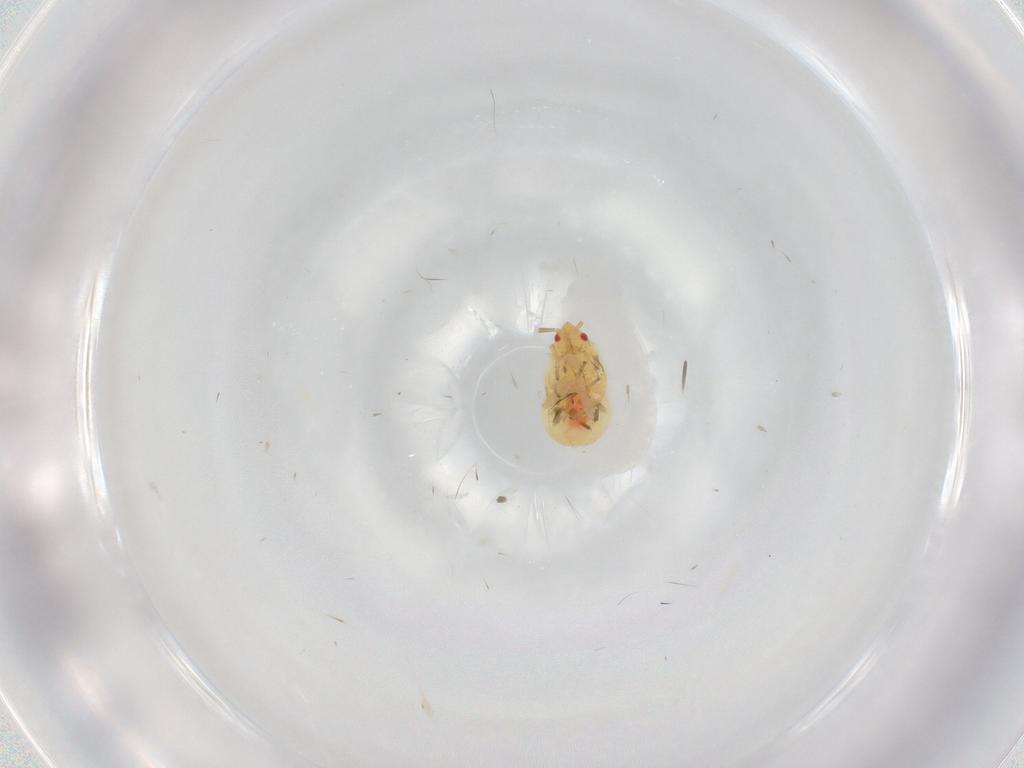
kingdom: Animalia
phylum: Arthropoda
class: Insecta
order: Hemiptera
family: Anthocoridae
